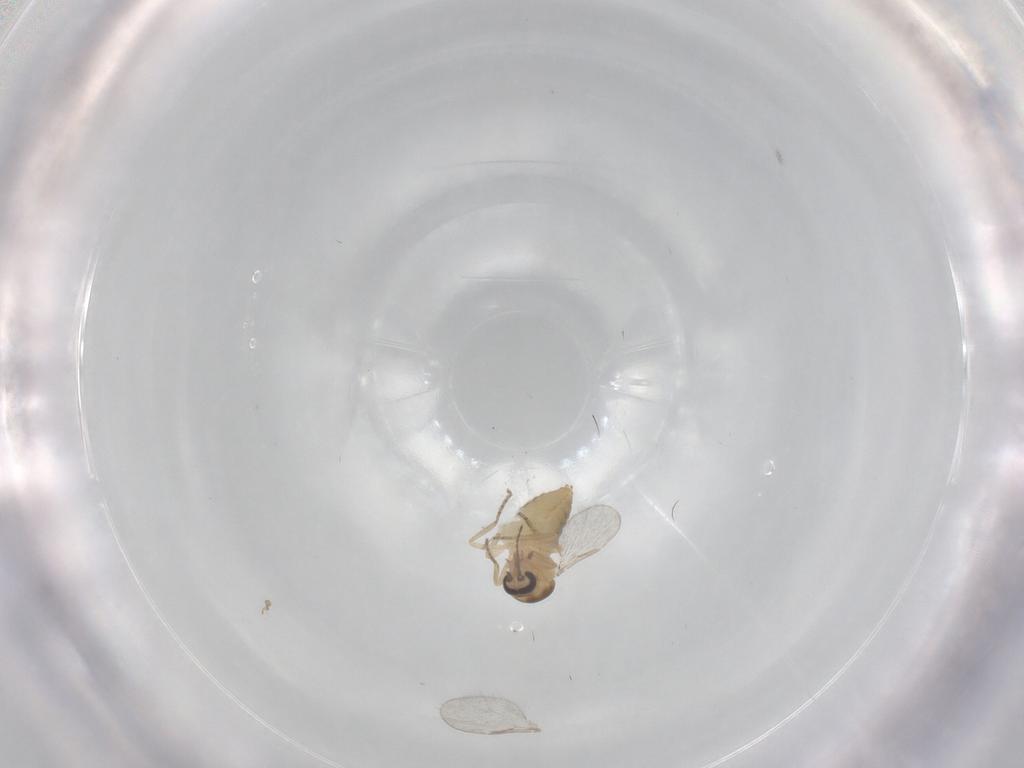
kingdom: Animalia
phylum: Arthropoda
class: Insecta
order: Diptera
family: Ceratopogonidae
